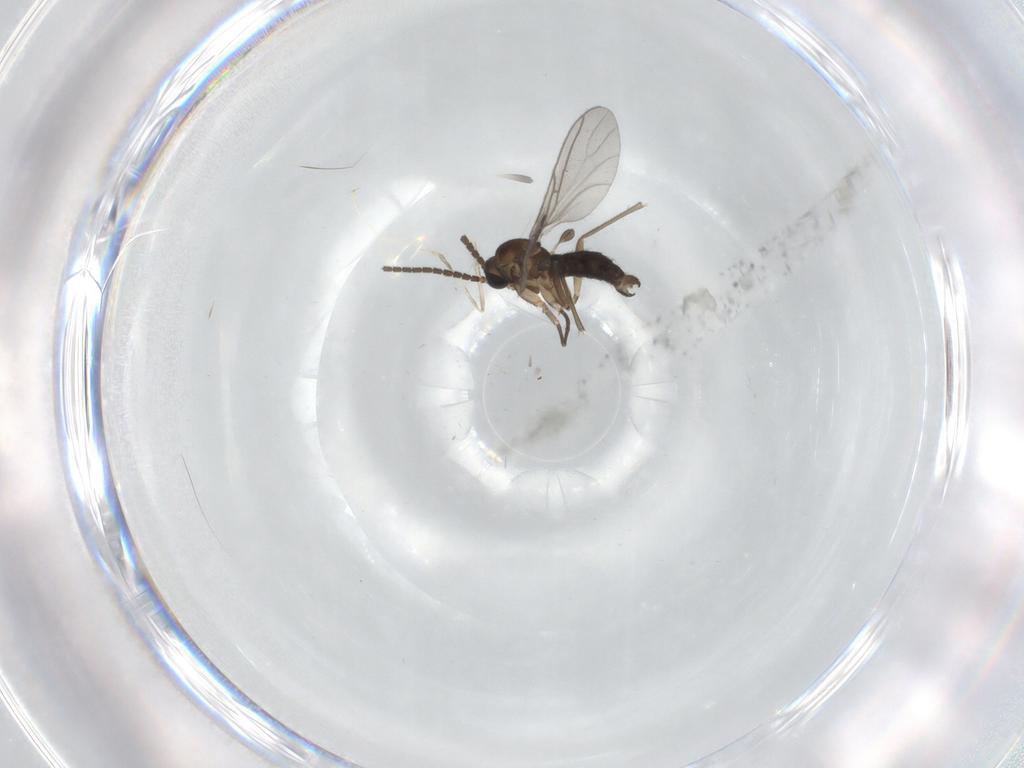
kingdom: Animalia
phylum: Arthropoda
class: Insecta
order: Diptera
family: Sciaridae
